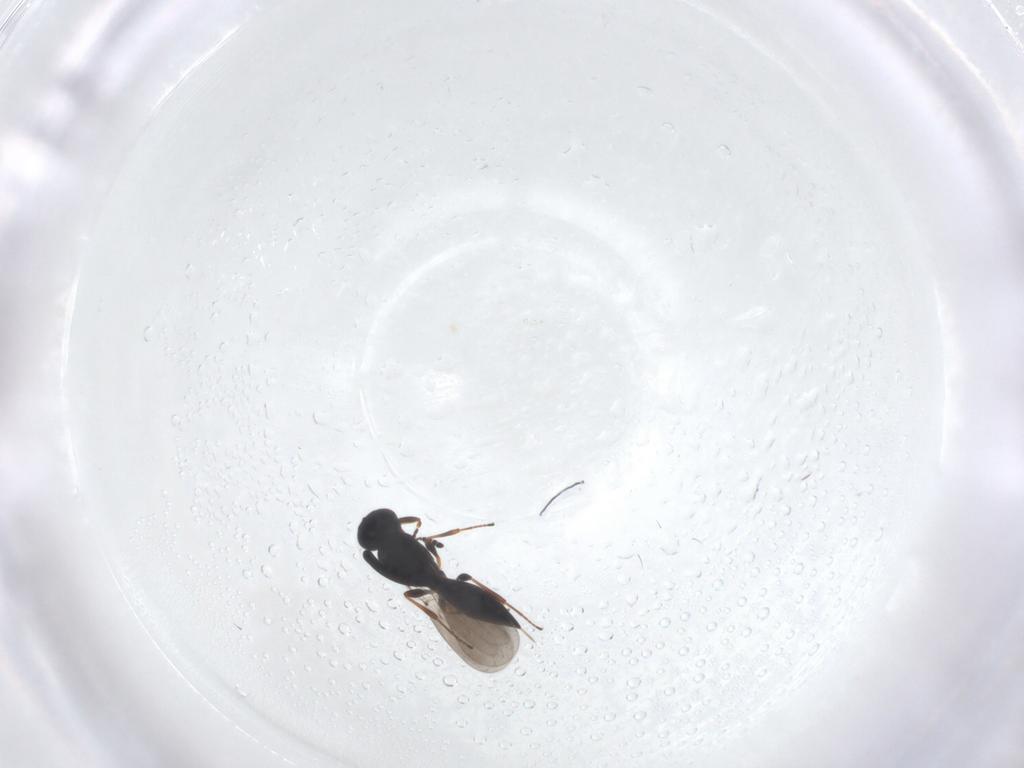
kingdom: Animalia
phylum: Arthropoda
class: Insecta
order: Hymenoptera
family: Platygastridae
